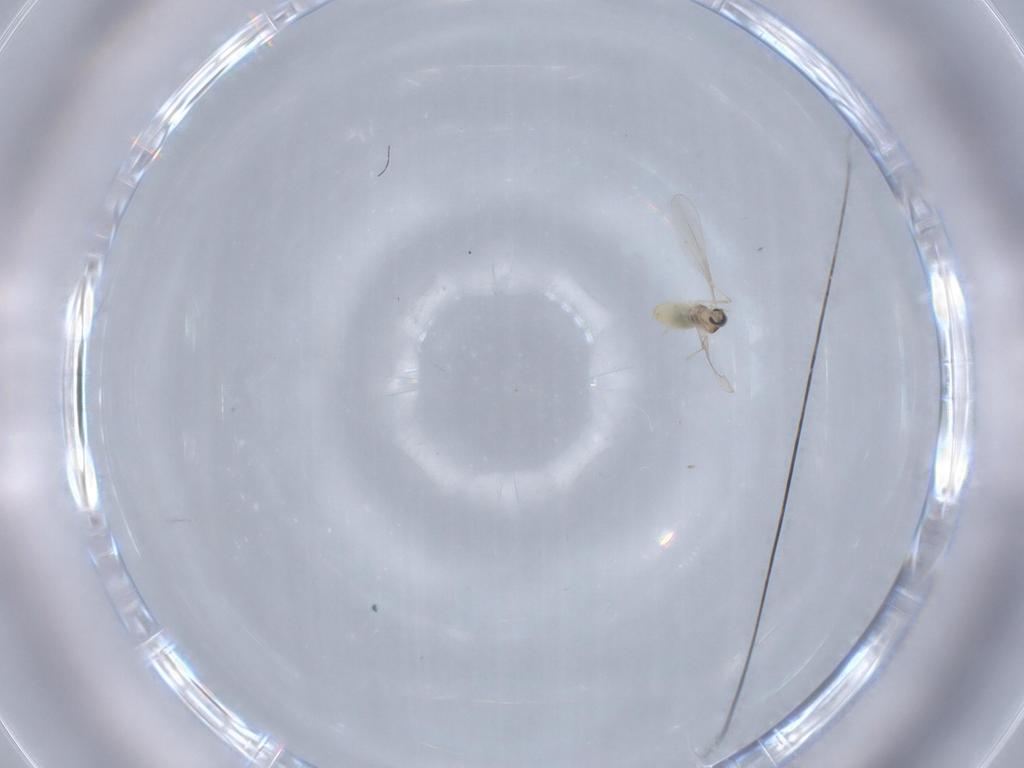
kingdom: Animalia
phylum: Arthropoda
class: Insecta
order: Diptera
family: Cecidomyiidae
